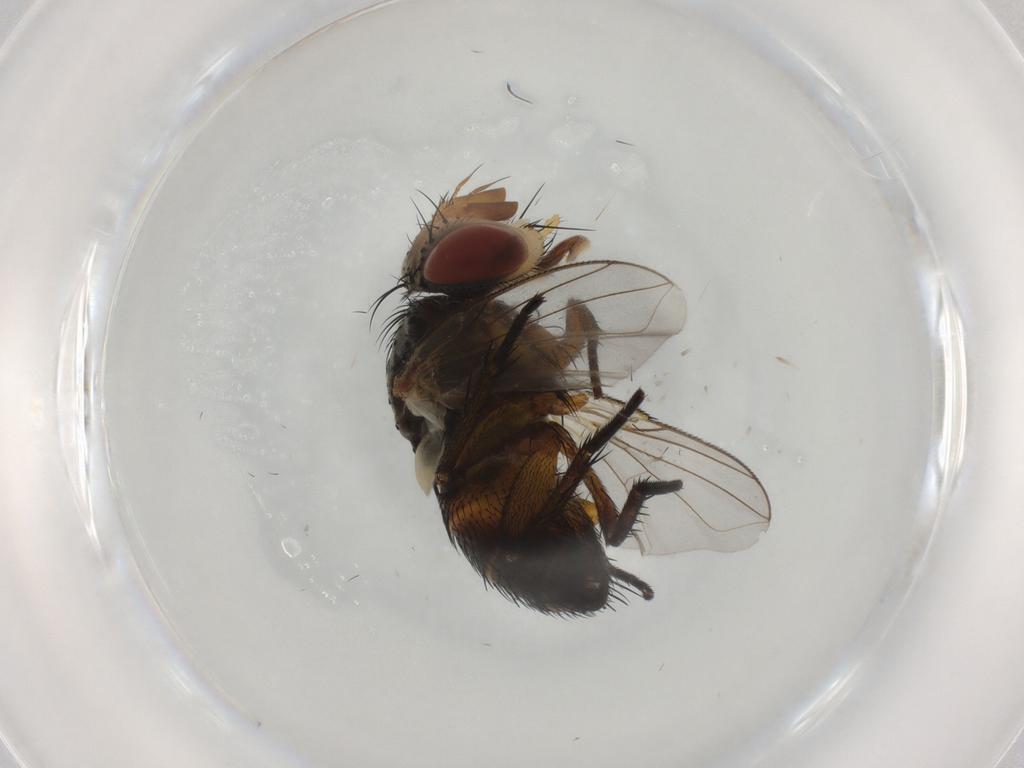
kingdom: Animalia
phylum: Arthropoda
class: Insecta
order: Diptera
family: Tachinidae
